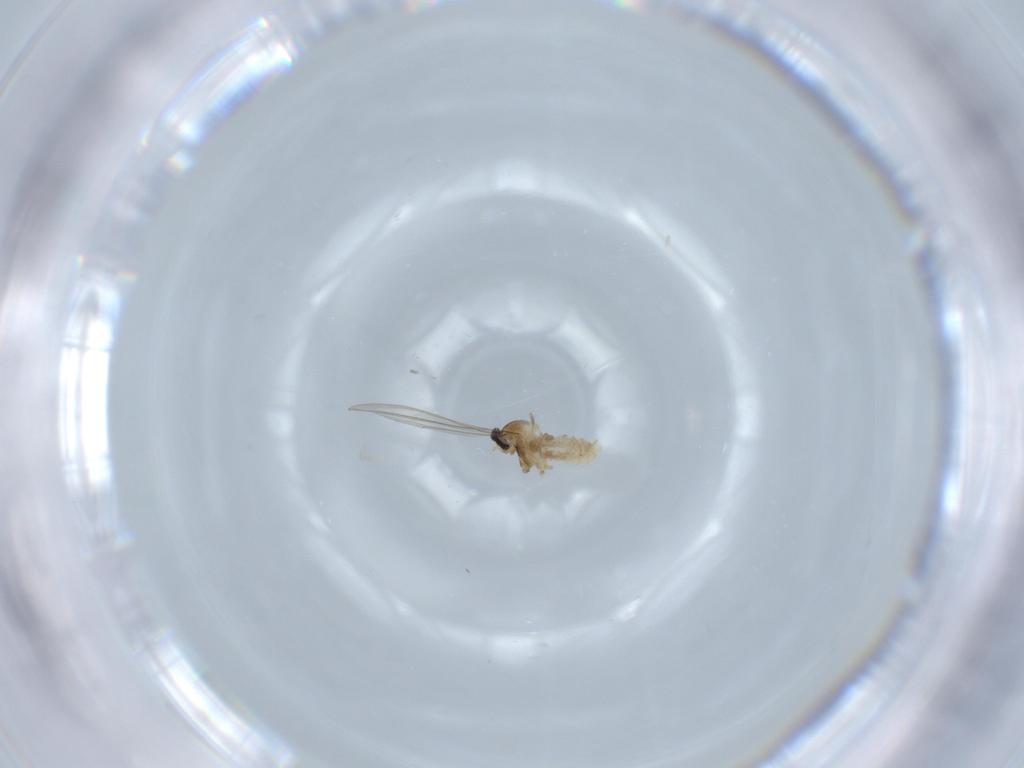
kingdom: Animalia
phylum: Arthropoda
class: Insecta
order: Diptera
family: Cecidomyiidae
